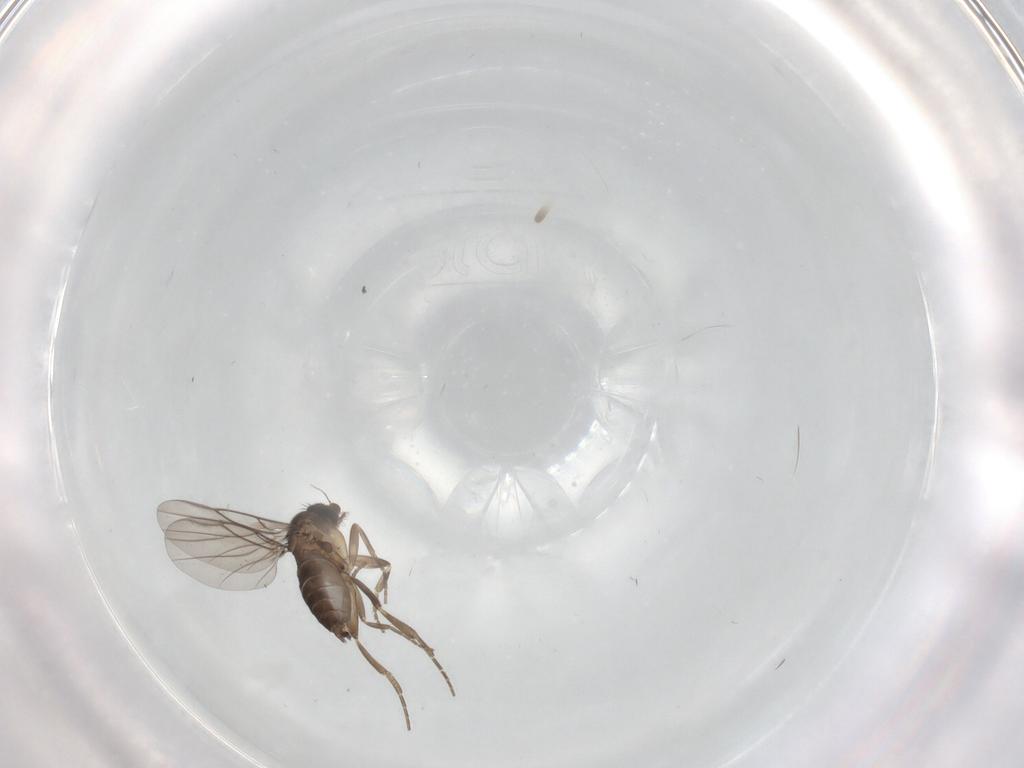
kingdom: Animalia
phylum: Arthropoda
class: Insecta
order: Diptera
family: Phoridae
